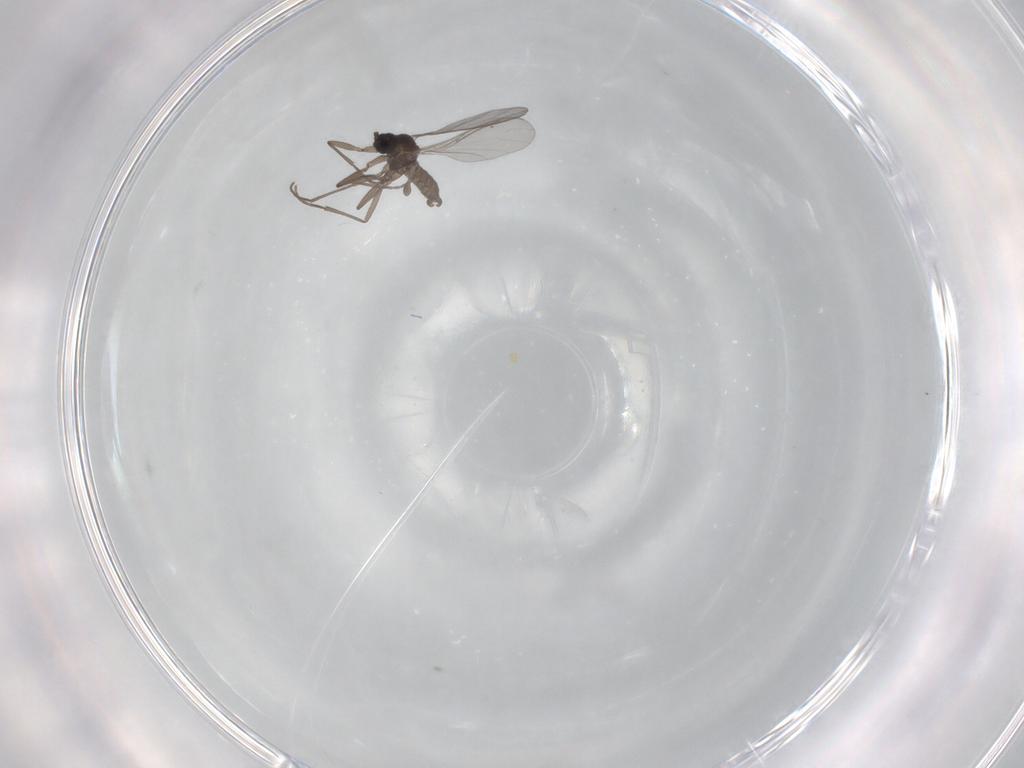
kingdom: Animalia
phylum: Arthropoda
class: Insecta
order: Diptera
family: Sciaridae
